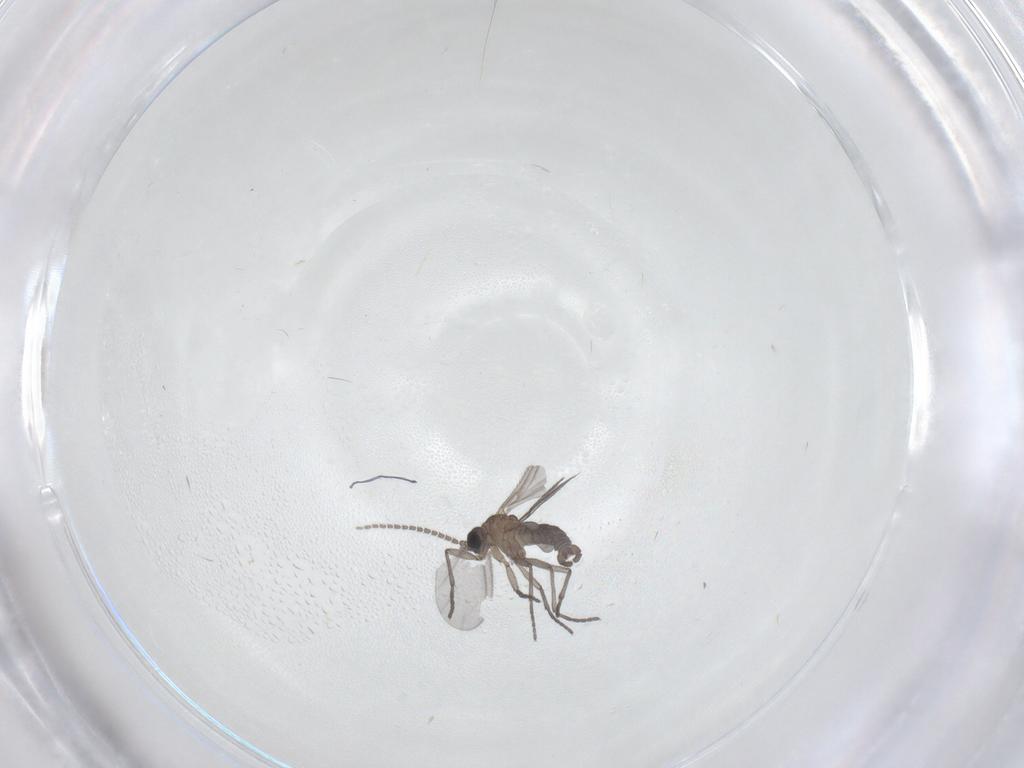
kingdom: Animalia
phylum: Arthropoda
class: Insecta
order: Diptera
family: Sciaridae
